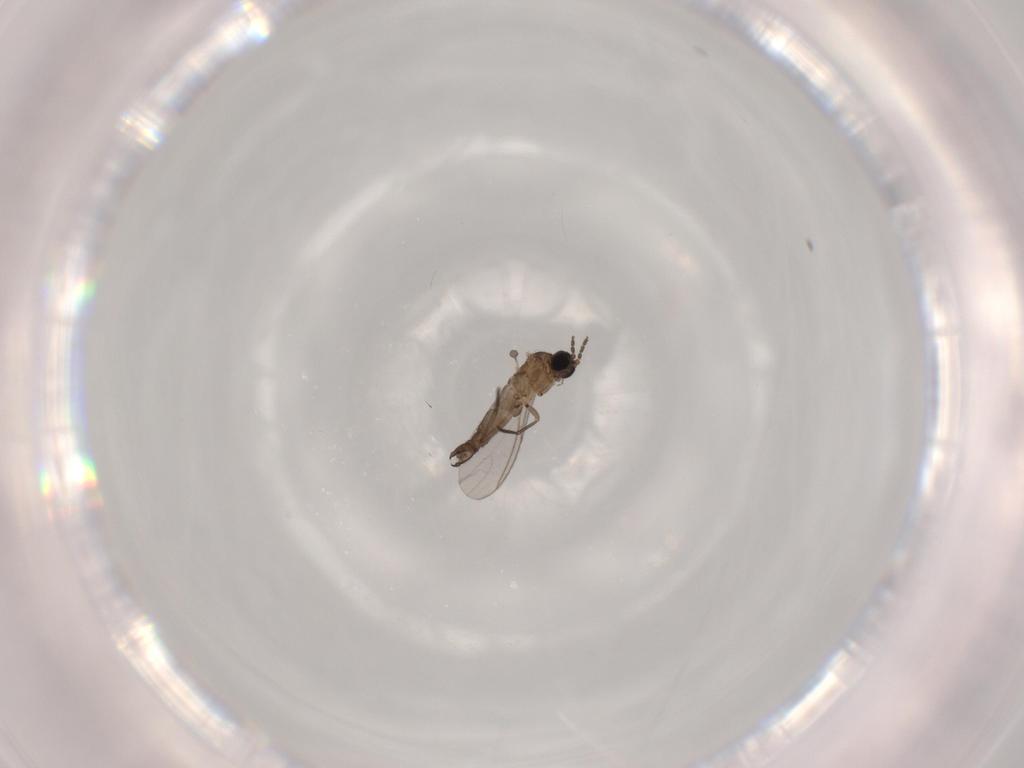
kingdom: Animalia
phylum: Arthropoda
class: Insecta
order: Diptera
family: Sciaridae
